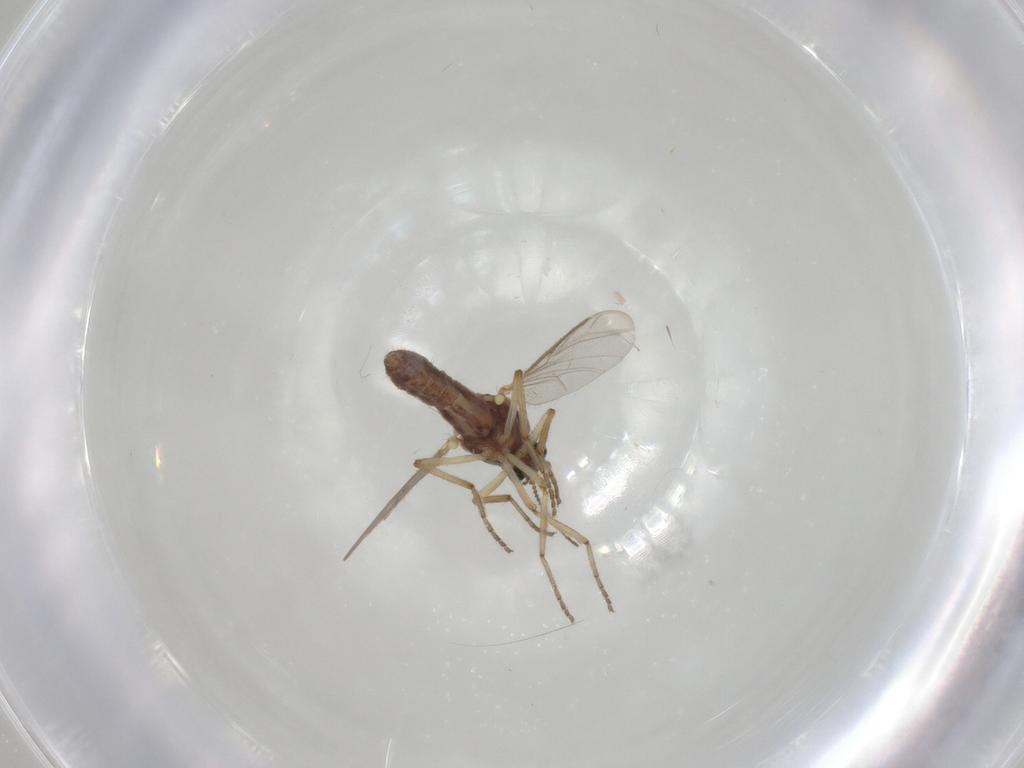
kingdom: Animalia
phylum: Arthropoda
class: Insecta
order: Diptera
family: Ceratopogonidae
